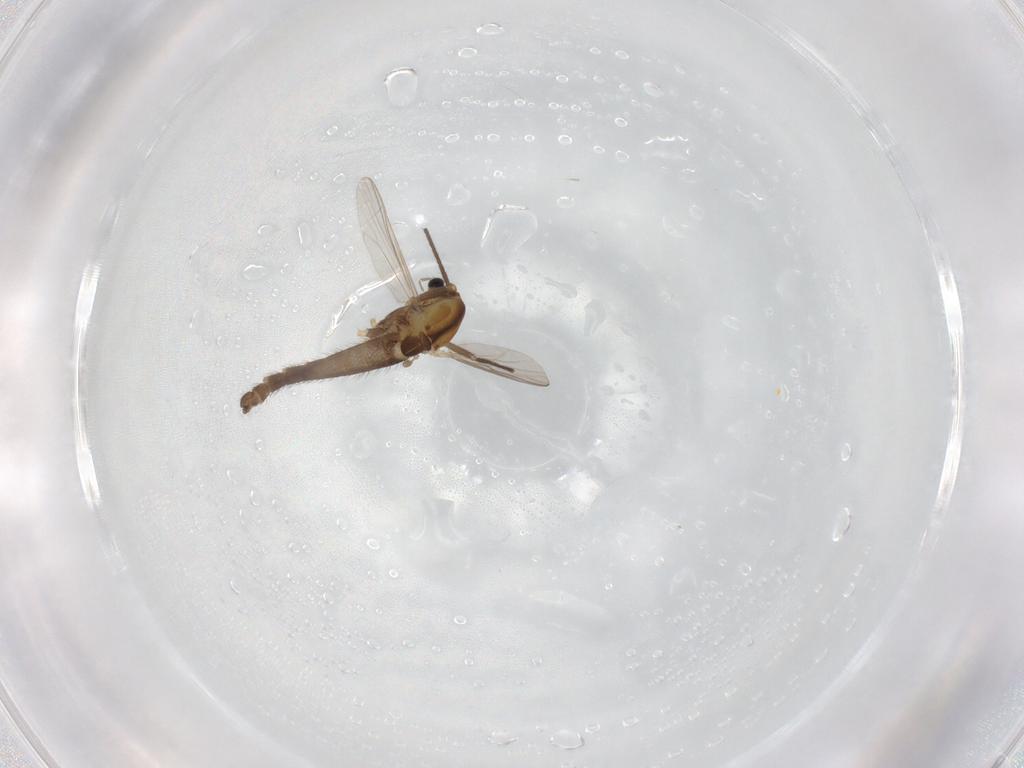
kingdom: Animalia
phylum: Arthropoda
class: Insecta
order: Diptera
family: Chironomidae
